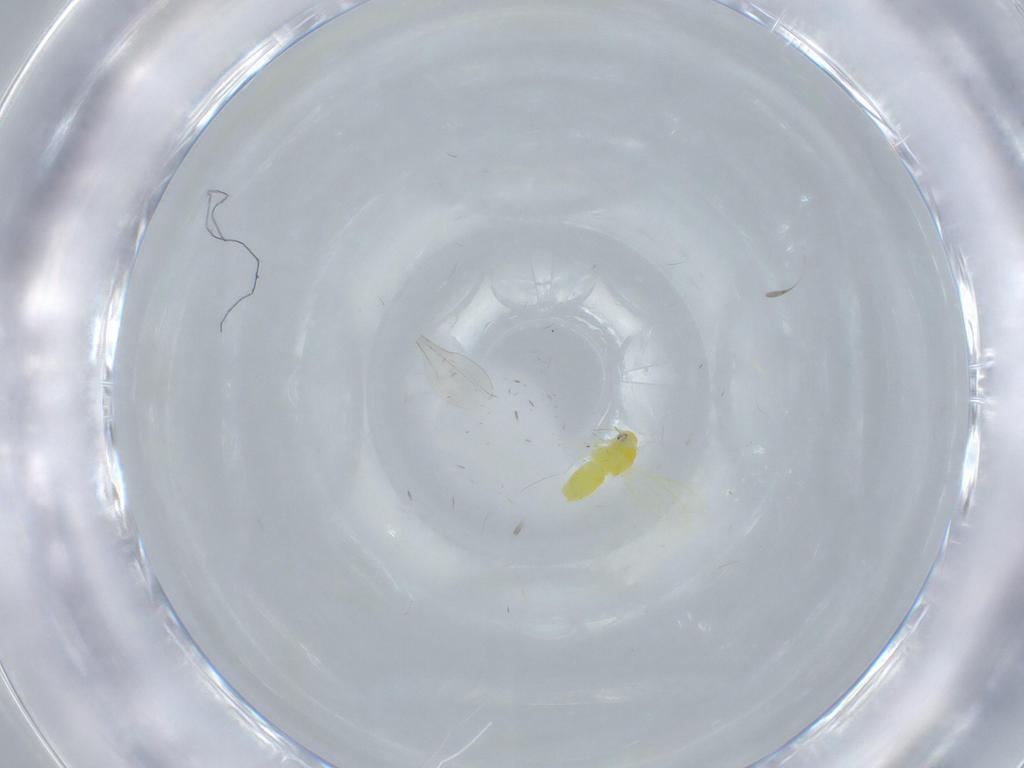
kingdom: Animalia
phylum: Arthropoda
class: Insecta
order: Hemiptera
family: Aleyrodidae
